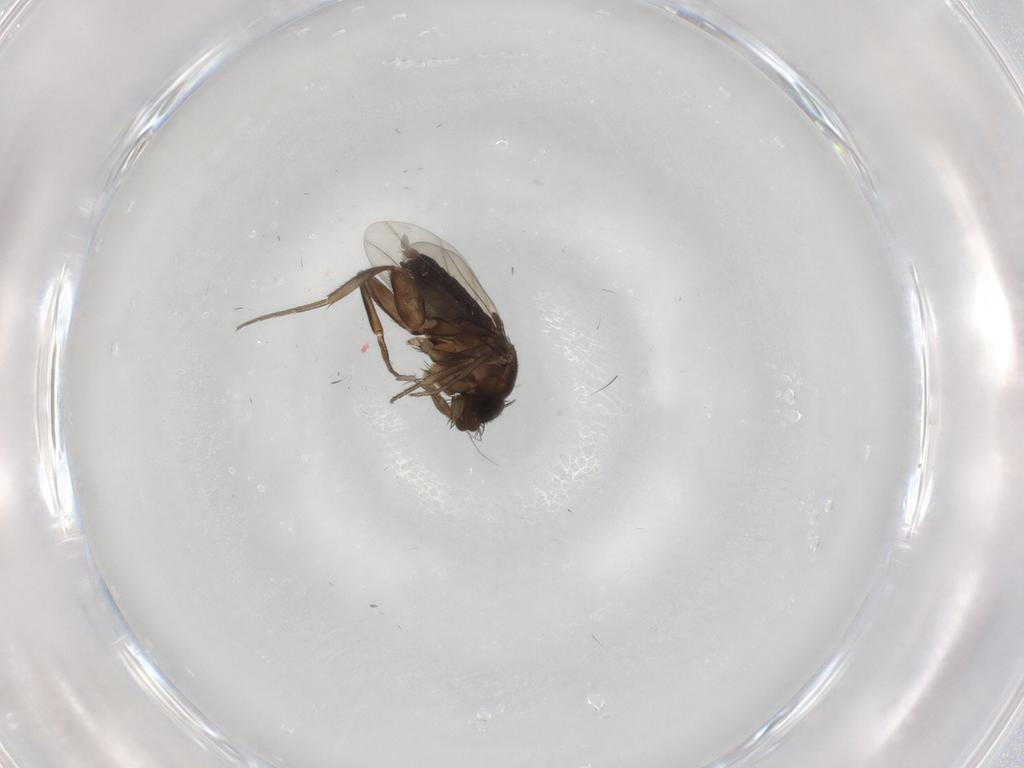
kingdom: Animalia
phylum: Arthropoda
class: Insecta
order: Diptera
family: Phoridae
